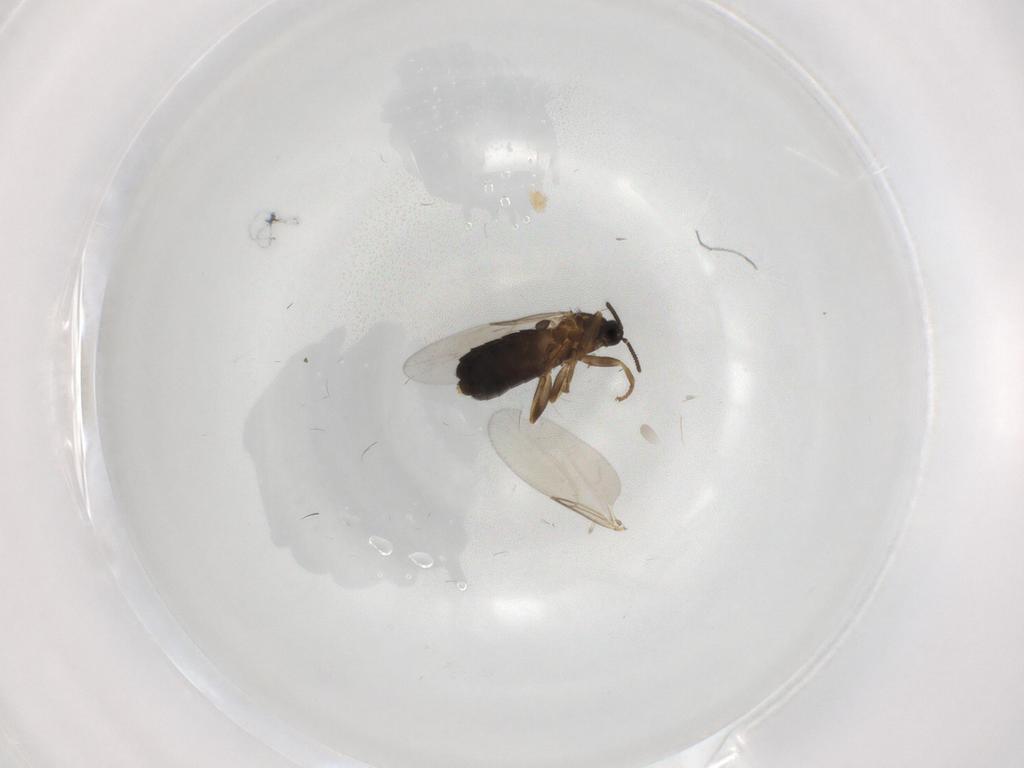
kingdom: Animalia
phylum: Arthropoda
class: Insecta
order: Diptera
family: Scatopsidae
